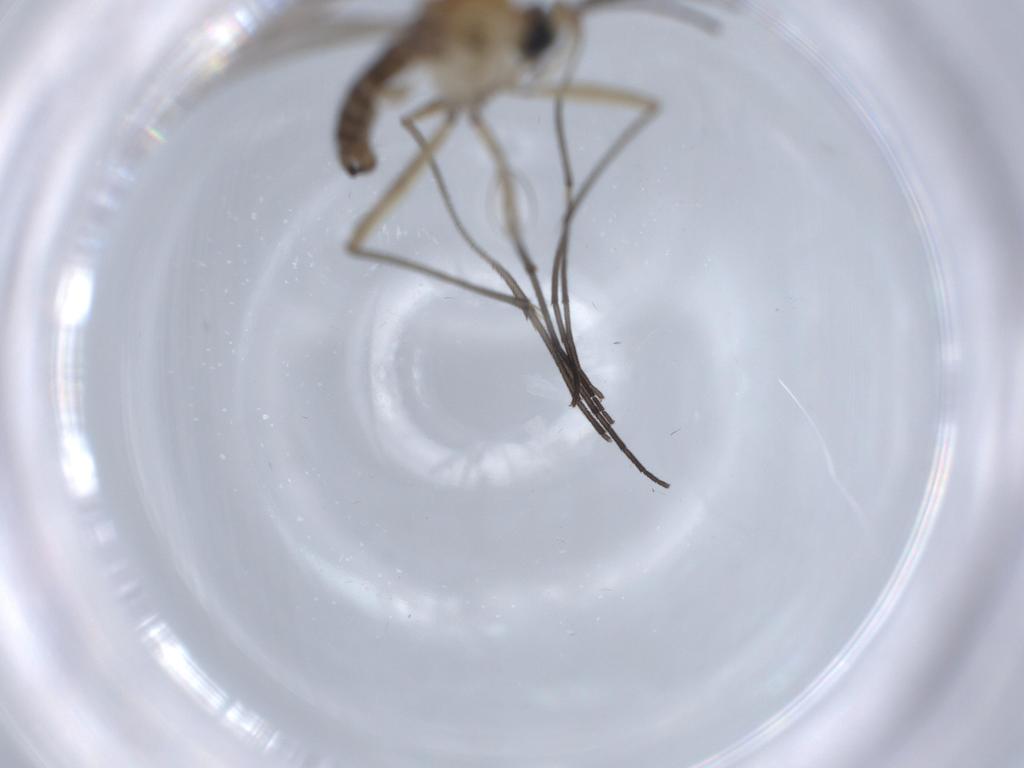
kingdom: Animalia
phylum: Arthropoda
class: Insecta
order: Diptera
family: Sciaridae
